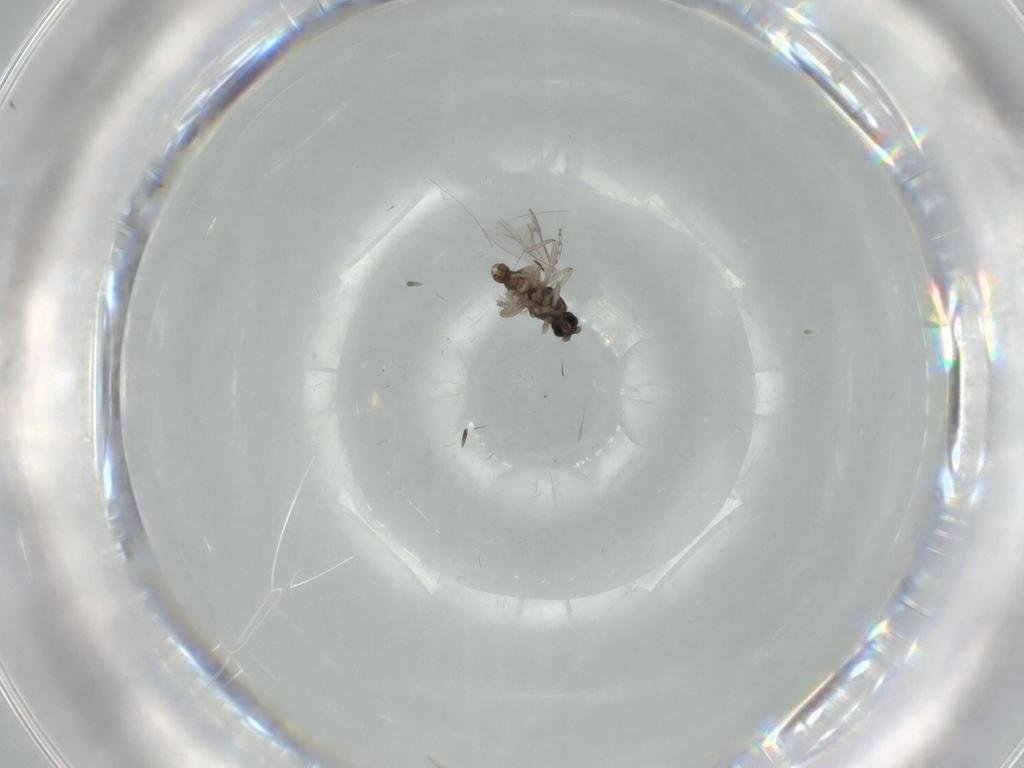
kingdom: Animalia
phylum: Arthropoda
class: Insecta
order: Diptera
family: Cecidomyiidae
